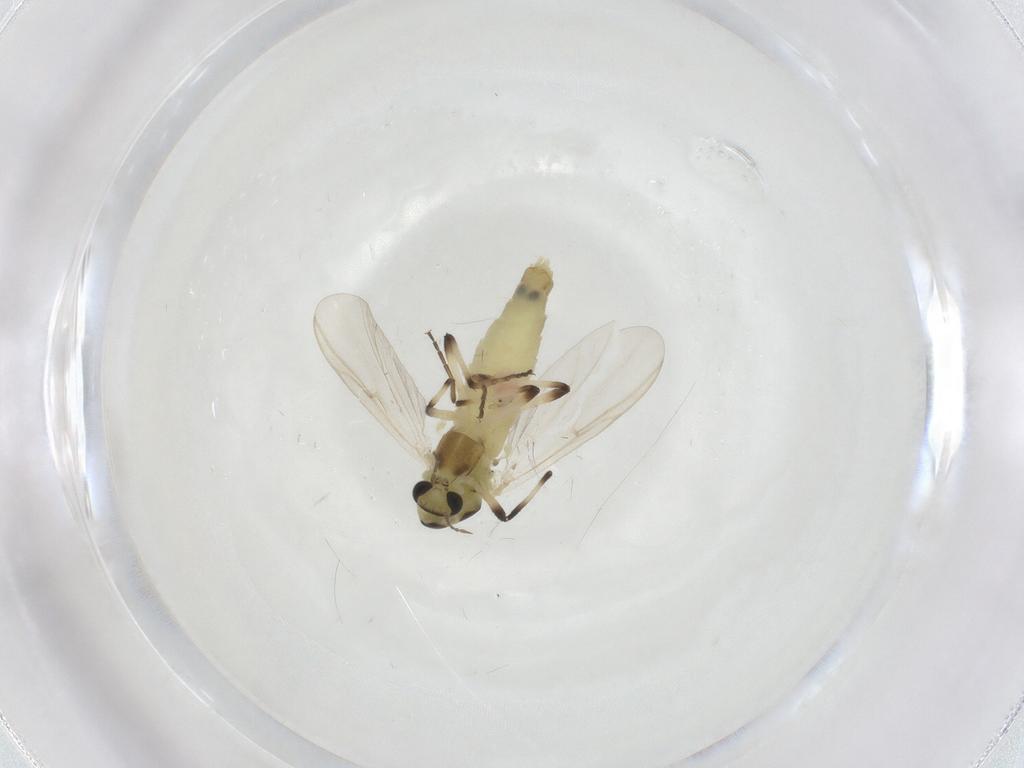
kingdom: Animalia
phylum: Arthropoda
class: Insecta
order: Diptera
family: Chironomidae
